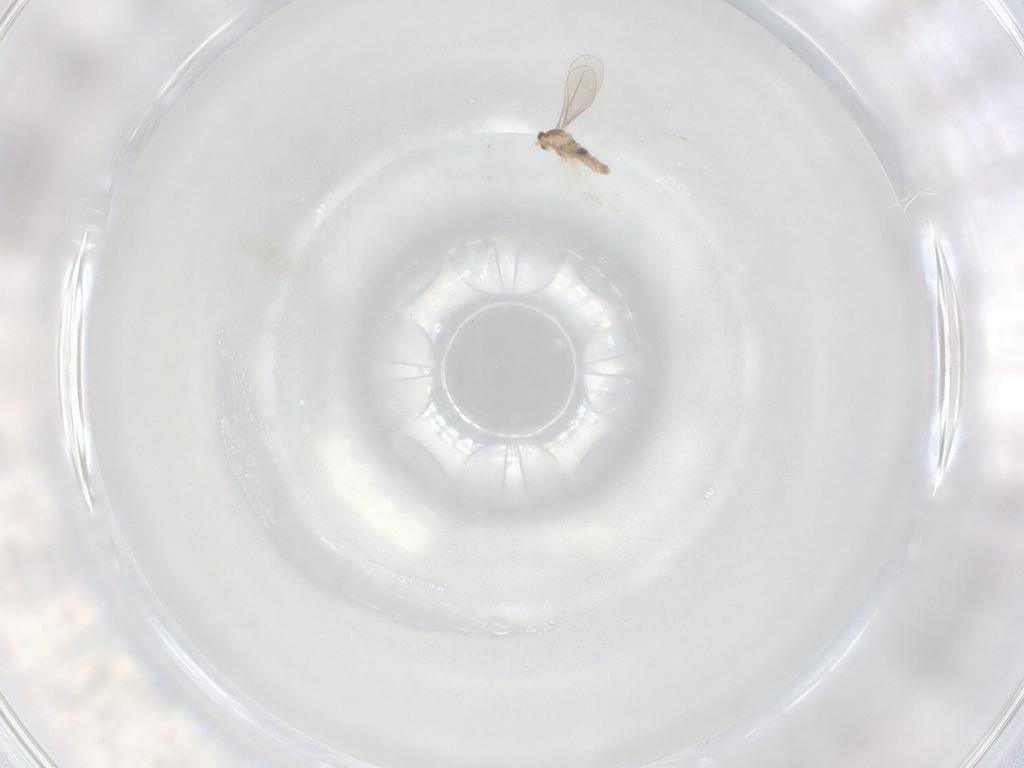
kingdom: Animalia
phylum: Arthropoda
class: Insecta
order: Diptera
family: Cecidomyiidae
